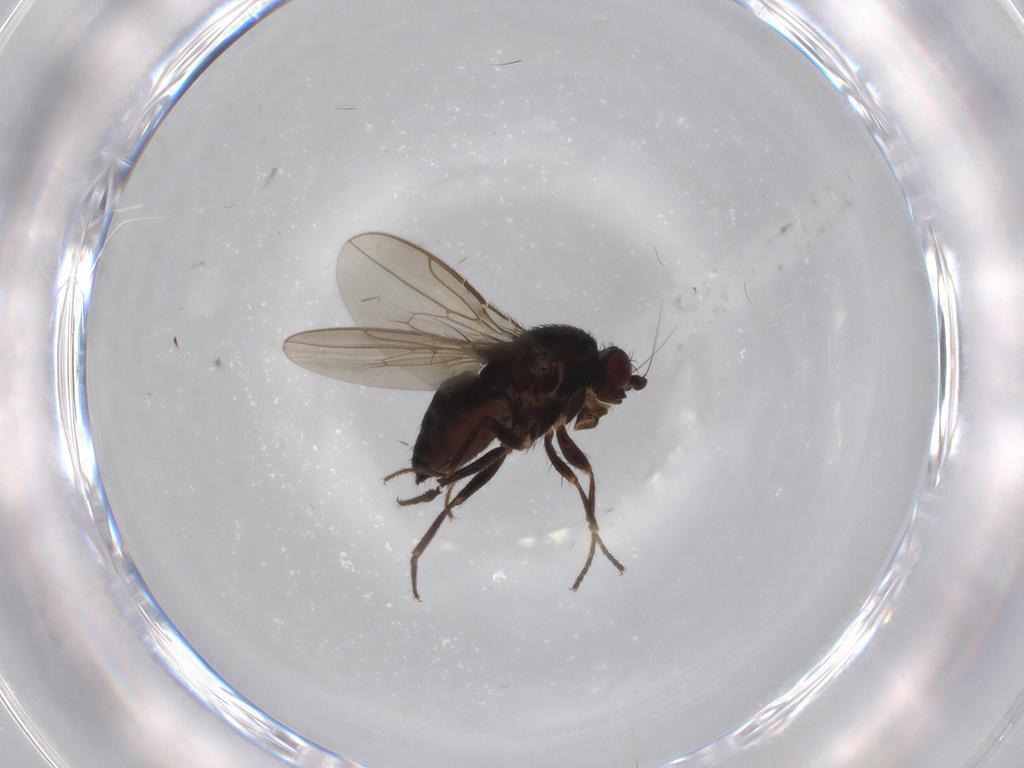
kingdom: Animalia
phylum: Arthropoda
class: Insecta
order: Diptera
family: Sphaeroceridae
